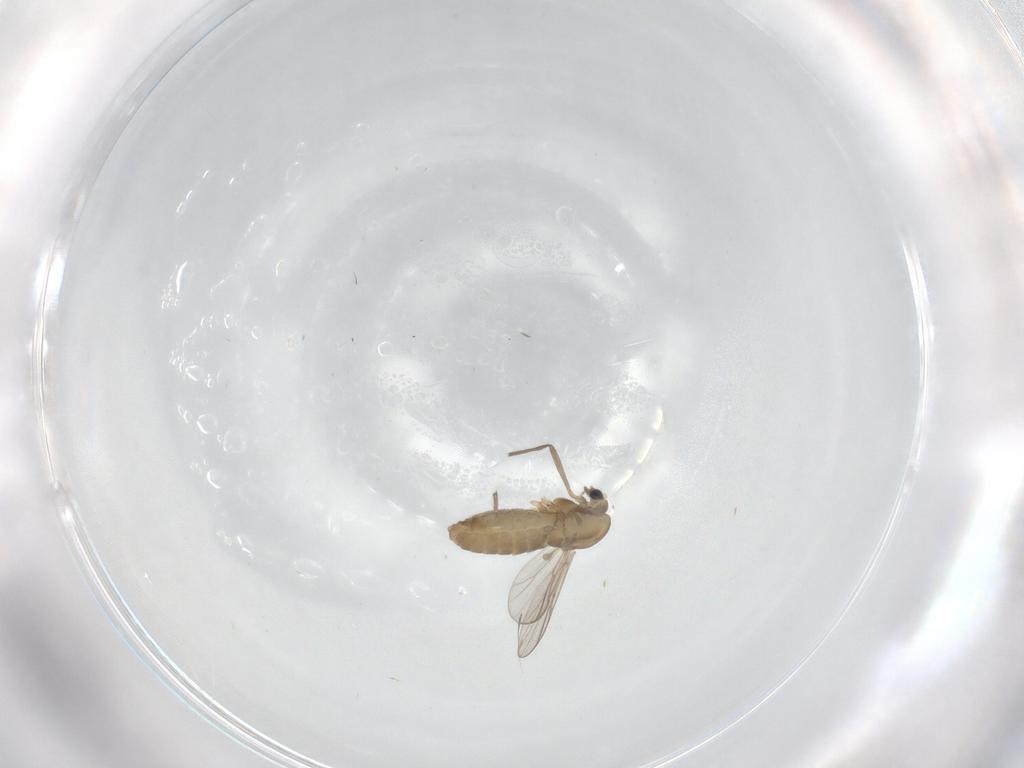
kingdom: Animalia
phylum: Arthropoda
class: Insecta
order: Diptera
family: Chironomidae
